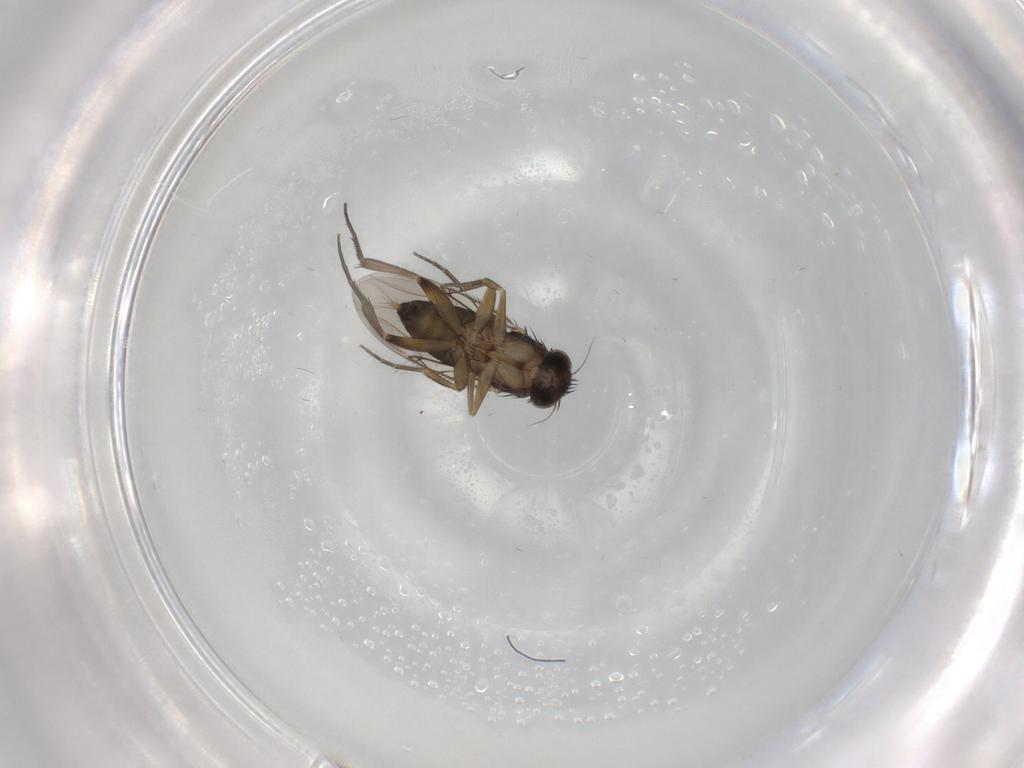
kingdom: Animalia
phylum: Arthropoda
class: Insecta
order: Diptera
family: Phoridae
